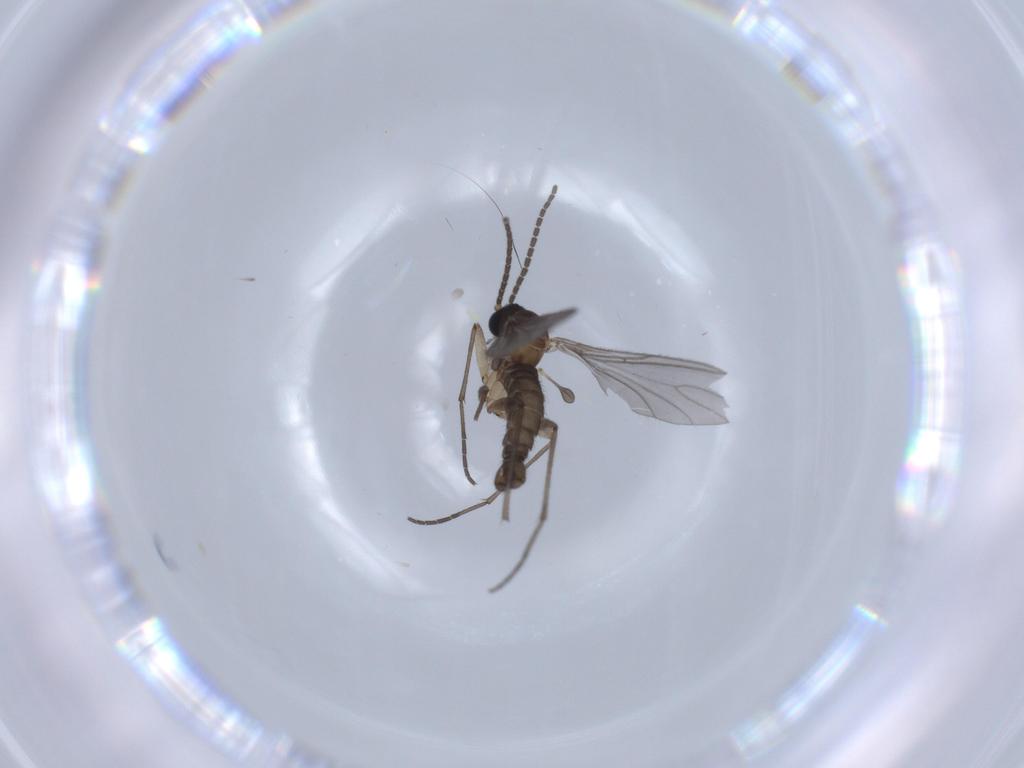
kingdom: Animalia
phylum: Arthropoda
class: Insecta
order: Diptera
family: Sciaridae
